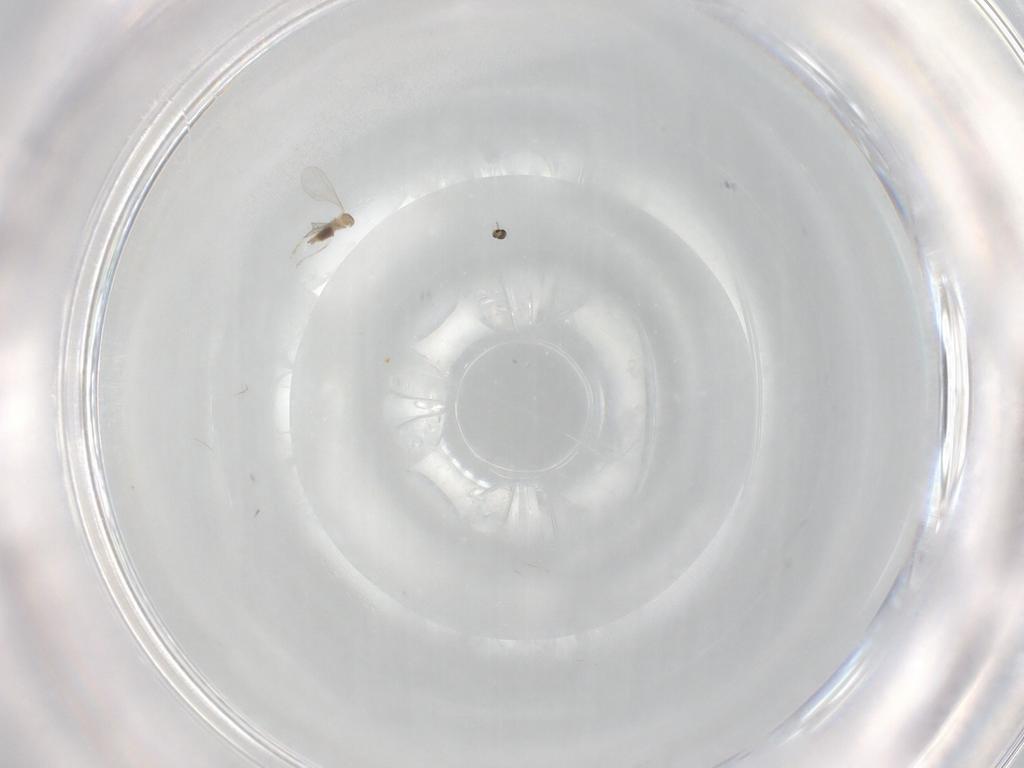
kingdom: Animalia
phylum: Arthropoda
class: Insecta
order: Diptera
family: Cecidomyiidae
